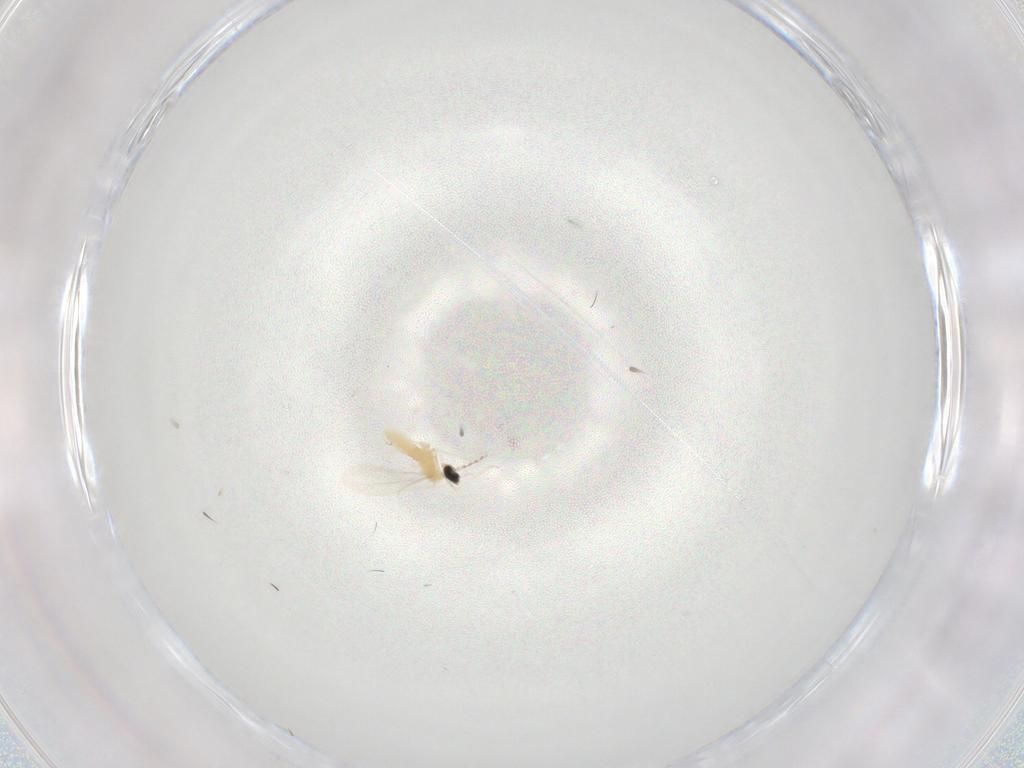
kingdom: Animalia
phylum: Arthropoda
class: Insecta
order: Diptera
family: Cecidomyiidae
